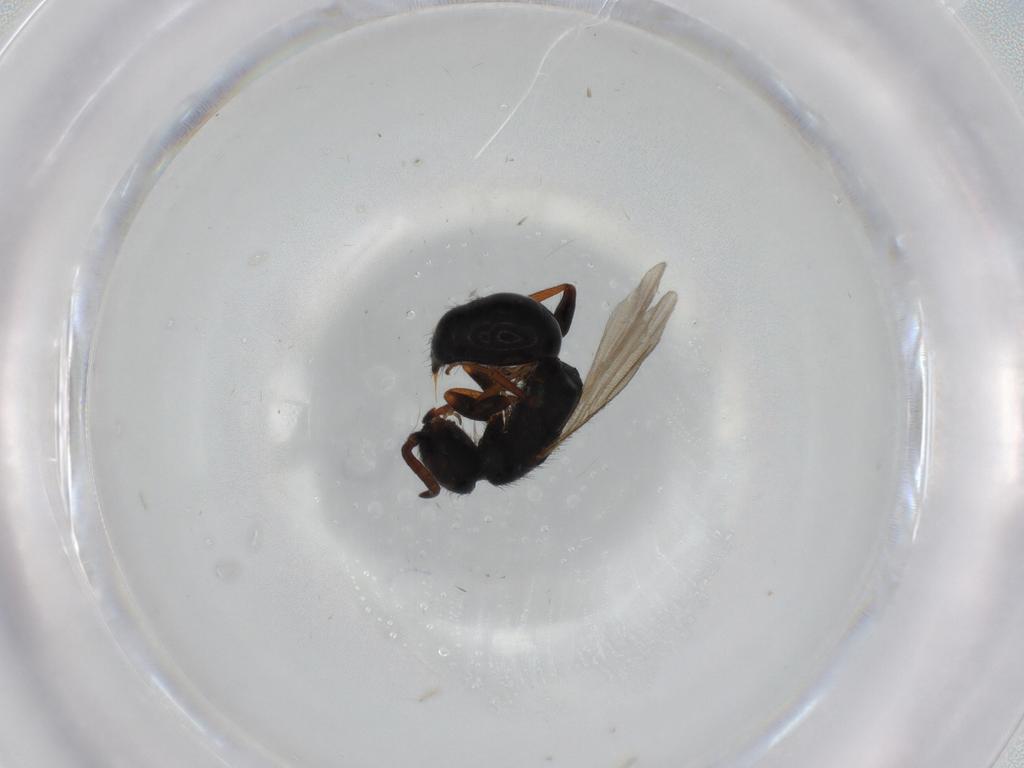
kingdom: Animalia
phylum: Arthropoda
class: Insecta
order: Hymenoptera
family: Bethylidae
